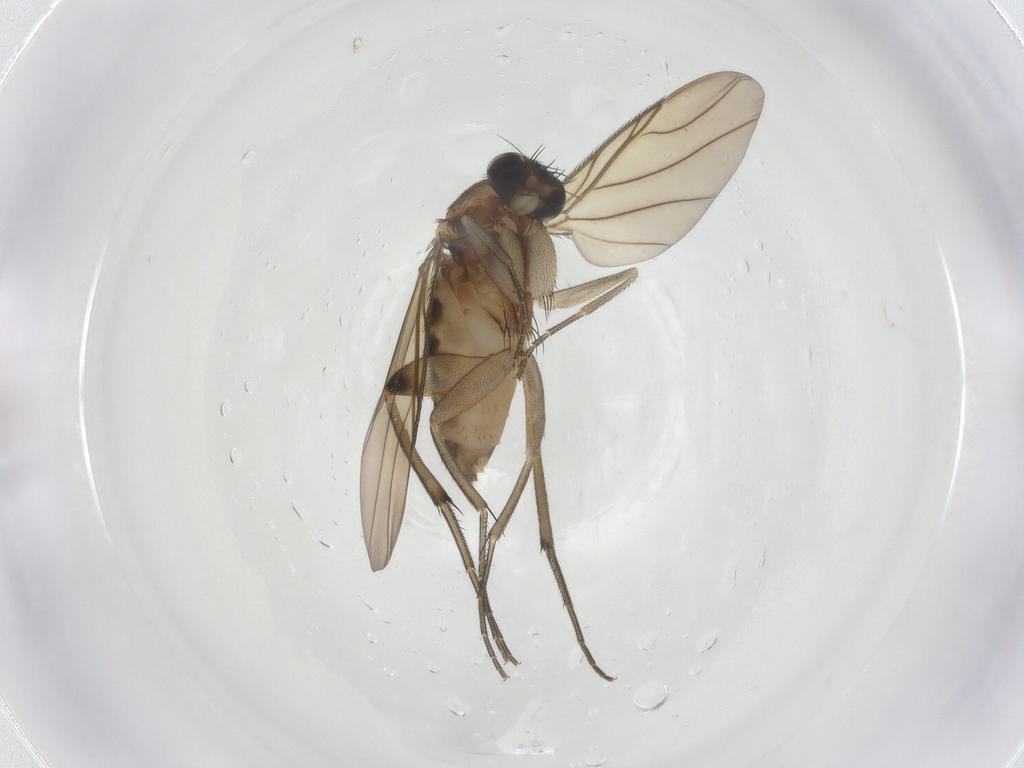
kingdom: Animalia
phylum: Arthropoda
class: Insecta
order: Diptera
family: Phoridae
